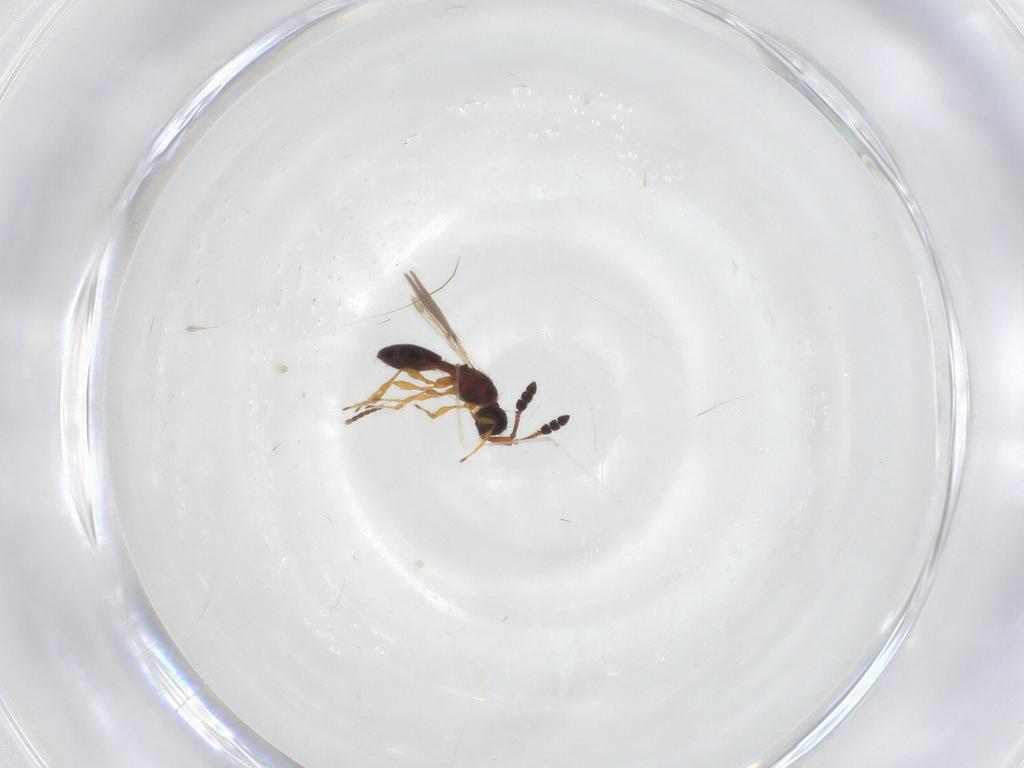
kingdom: Animalia
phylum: Arthropoda
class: Insecta
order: Hymenoptera
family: Diapriidae
